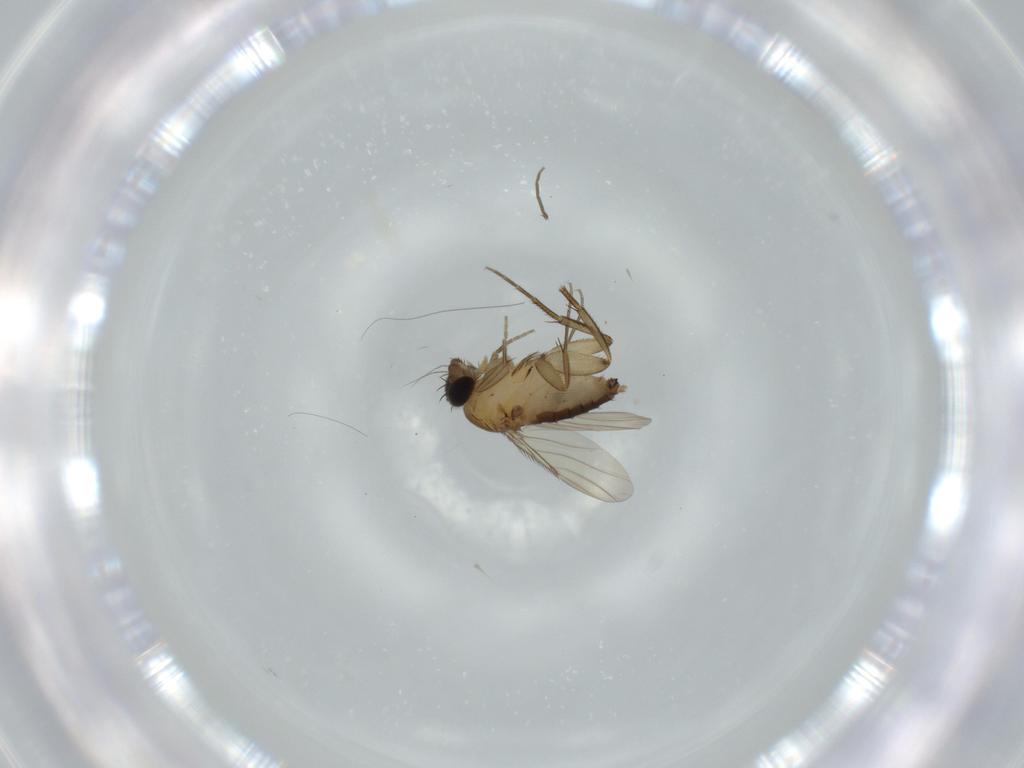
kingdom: Animalia
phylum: Arthropoda
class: Insecta
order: Diptera
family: Phoridae
